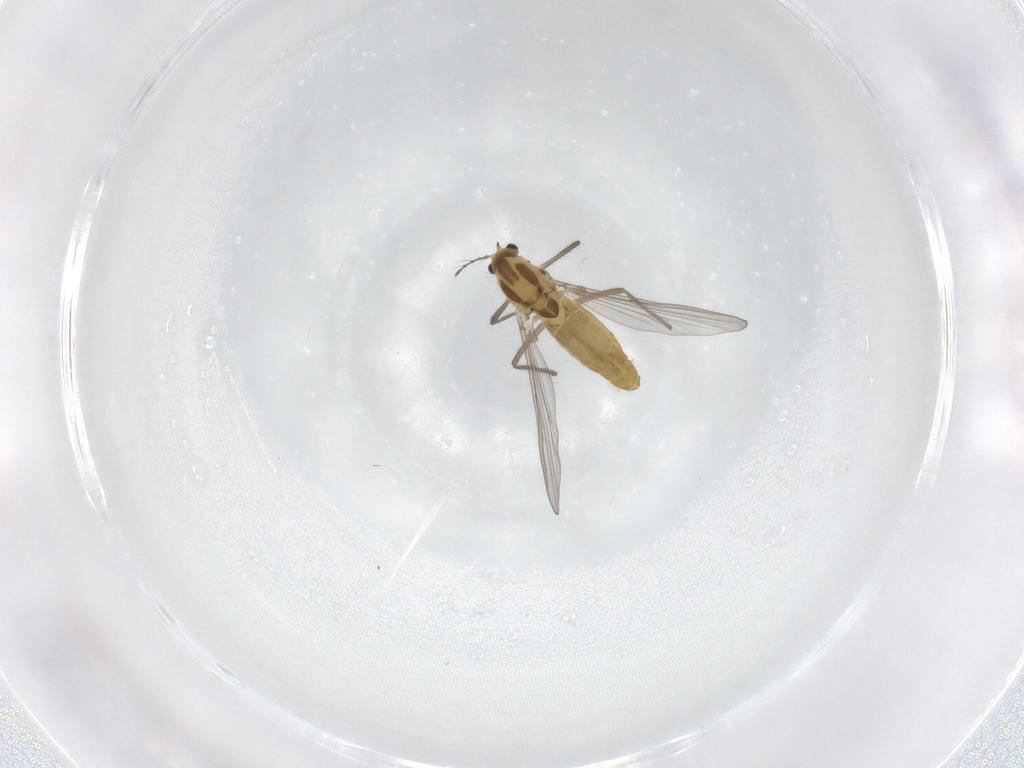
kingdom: Animalia
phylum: Arthropoda
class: Insecta
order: Diptera
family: Chironomidae
